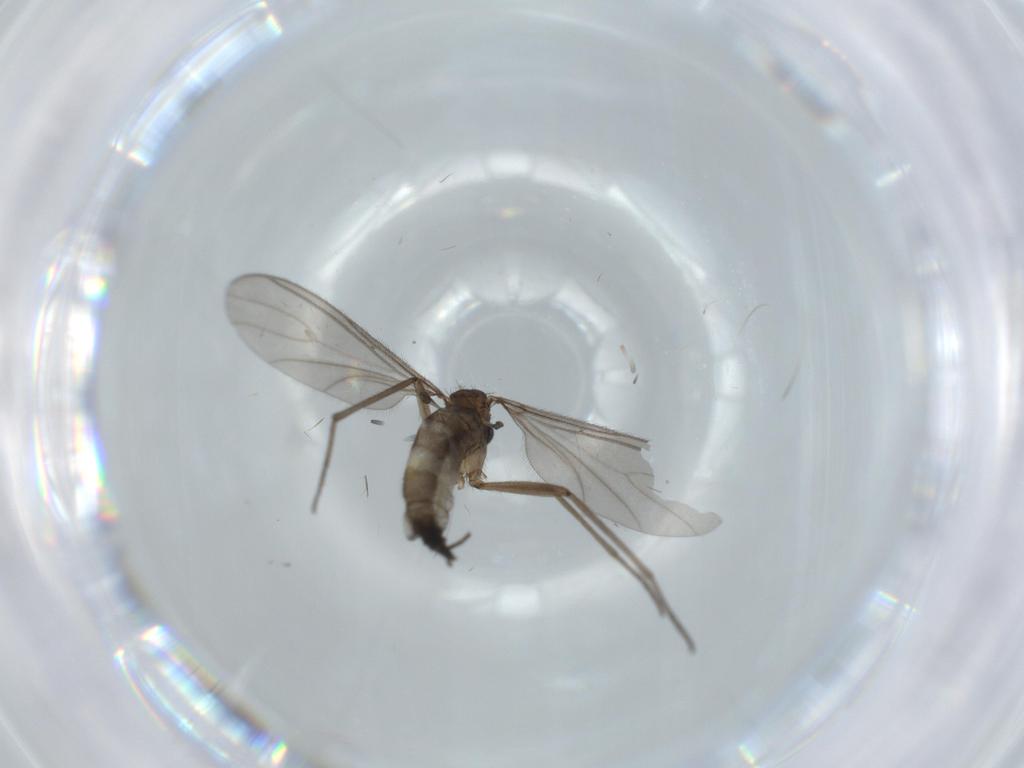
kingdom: Animalia
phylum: Arthropoda
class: Insecta
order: Diptera
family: Sciaridae
